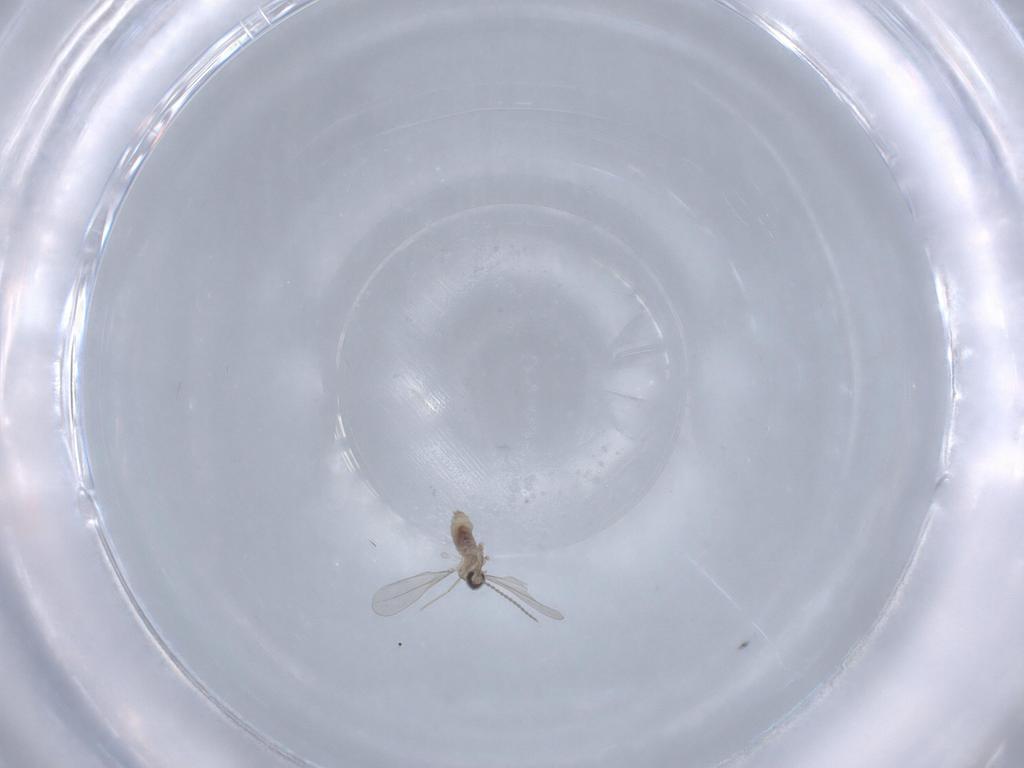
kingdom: Animalia
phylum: Arthropoda
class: Insecta
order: Diptera
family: Cecidomyiidae
